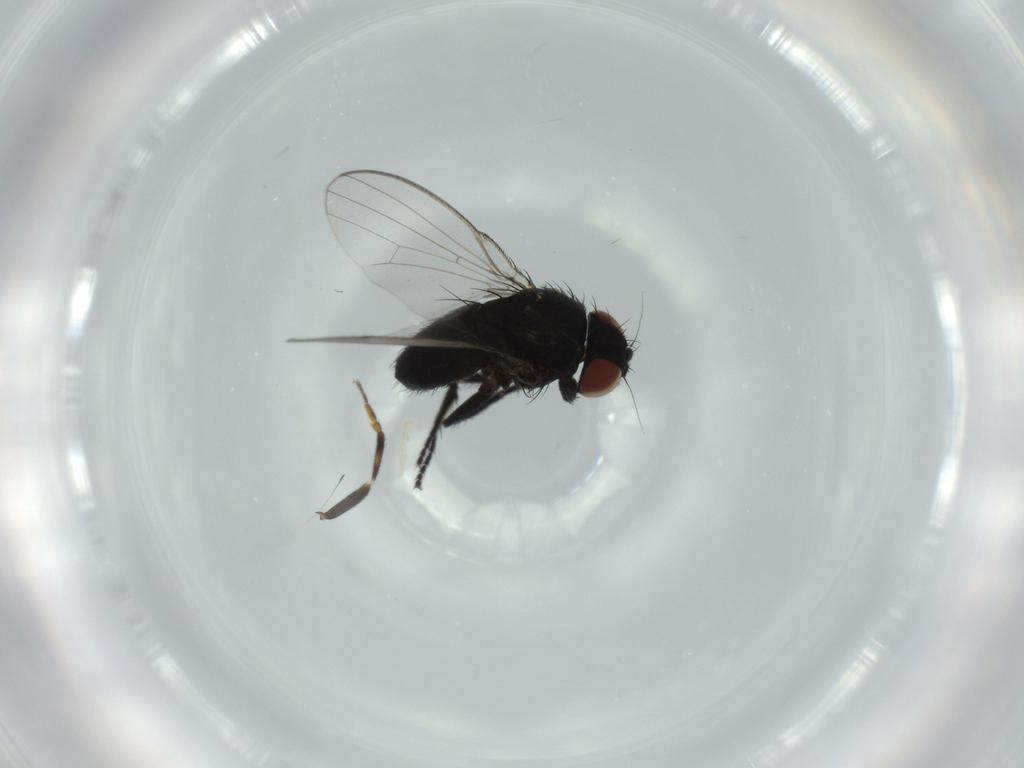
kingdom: Animalia
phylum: Arthropoda
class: Insecta
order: Diptera
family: Milichiidae
